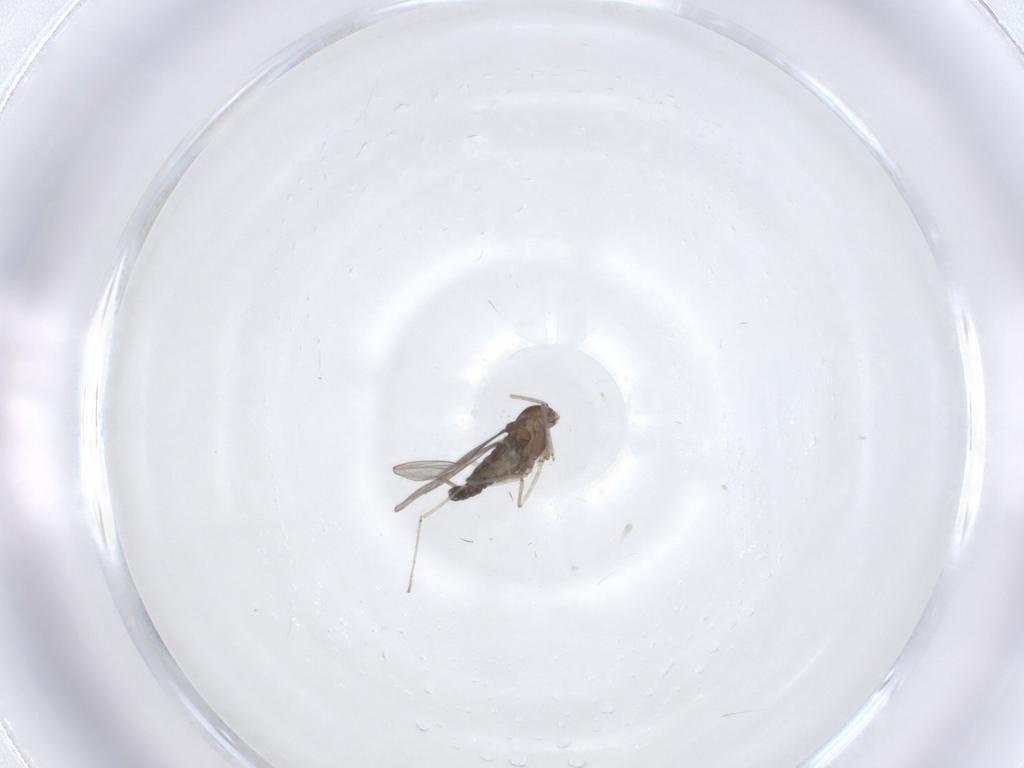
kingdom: Animalia
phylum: Arthropoda
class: Insecta
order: Diptera
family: Cecidomyiidae
